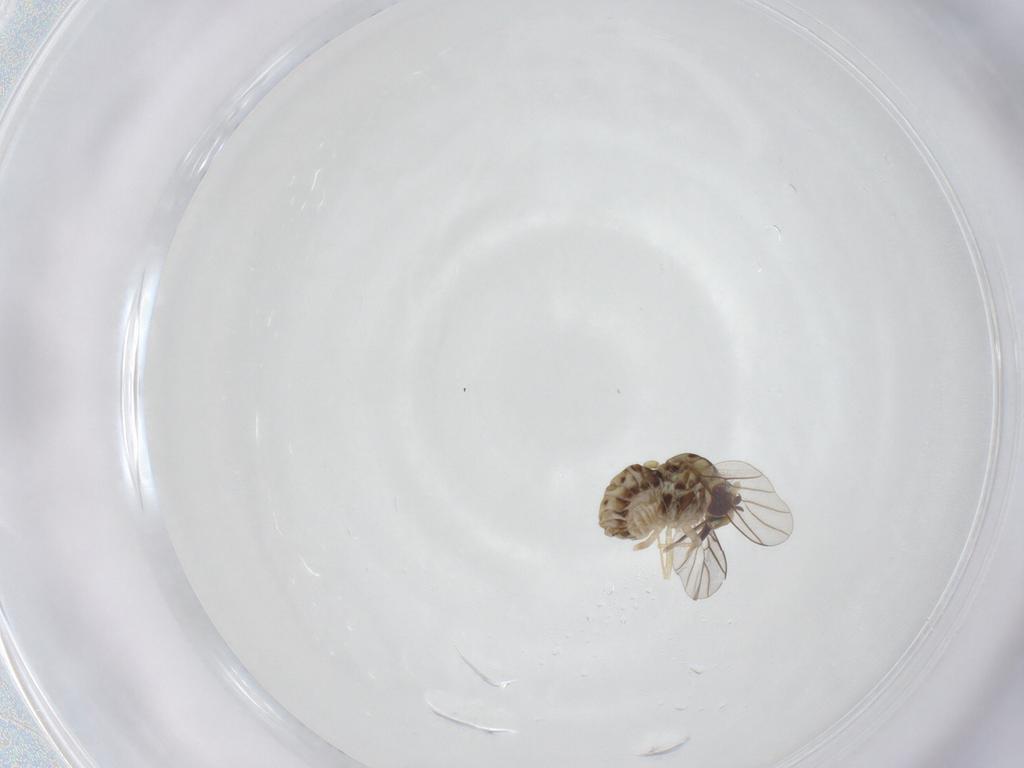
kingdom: Animalia
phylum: Arthropoda
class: Insecta
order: Diptera
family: Bombyliidae
